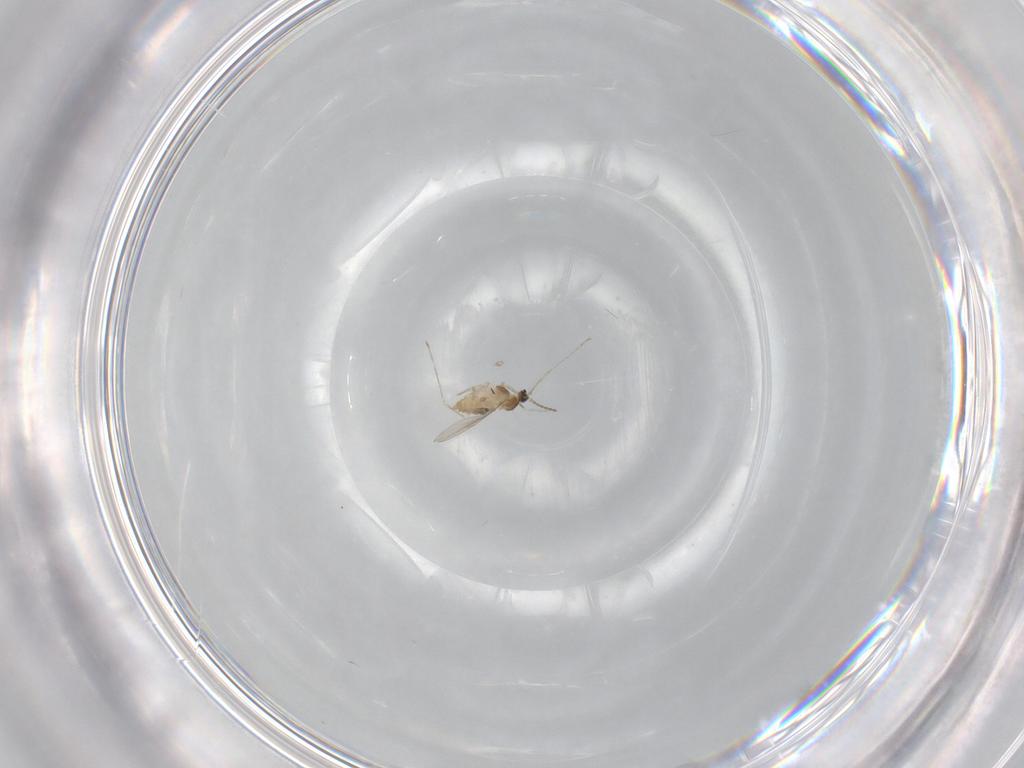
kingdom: Animalia
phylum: Arthropoda
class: Insecta
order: Diptera
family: Cecidomyiidae
